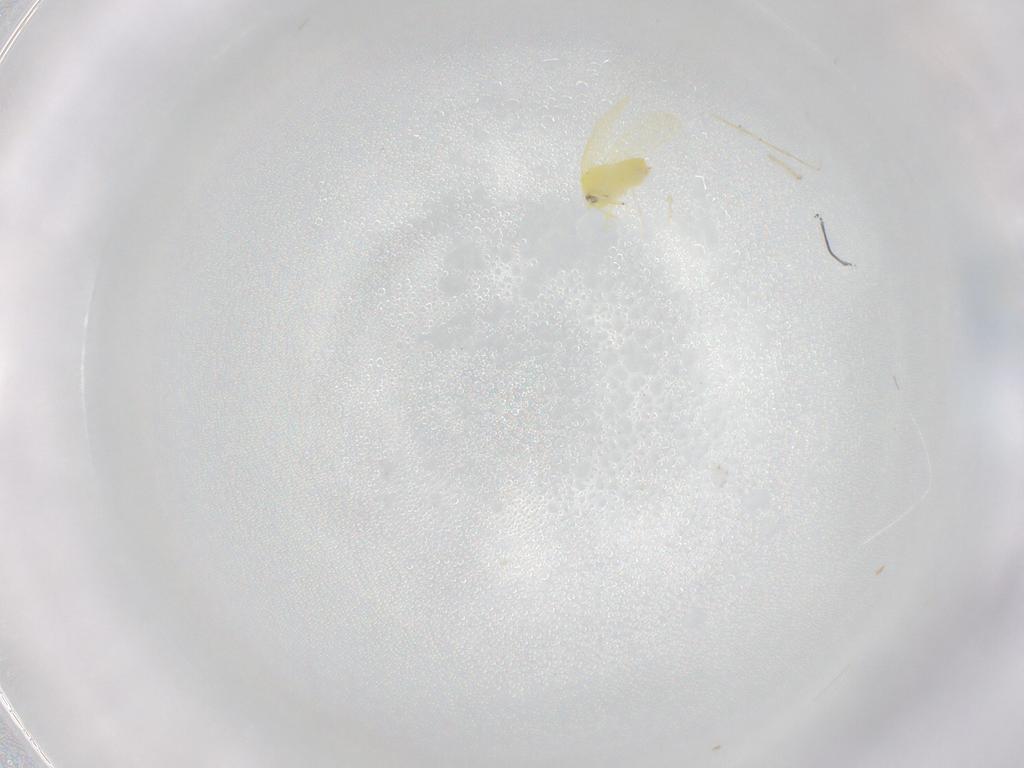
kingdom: Animalia
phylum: Arthropoda
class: Insecta
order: Hemiptera
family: Aleyrodidae
